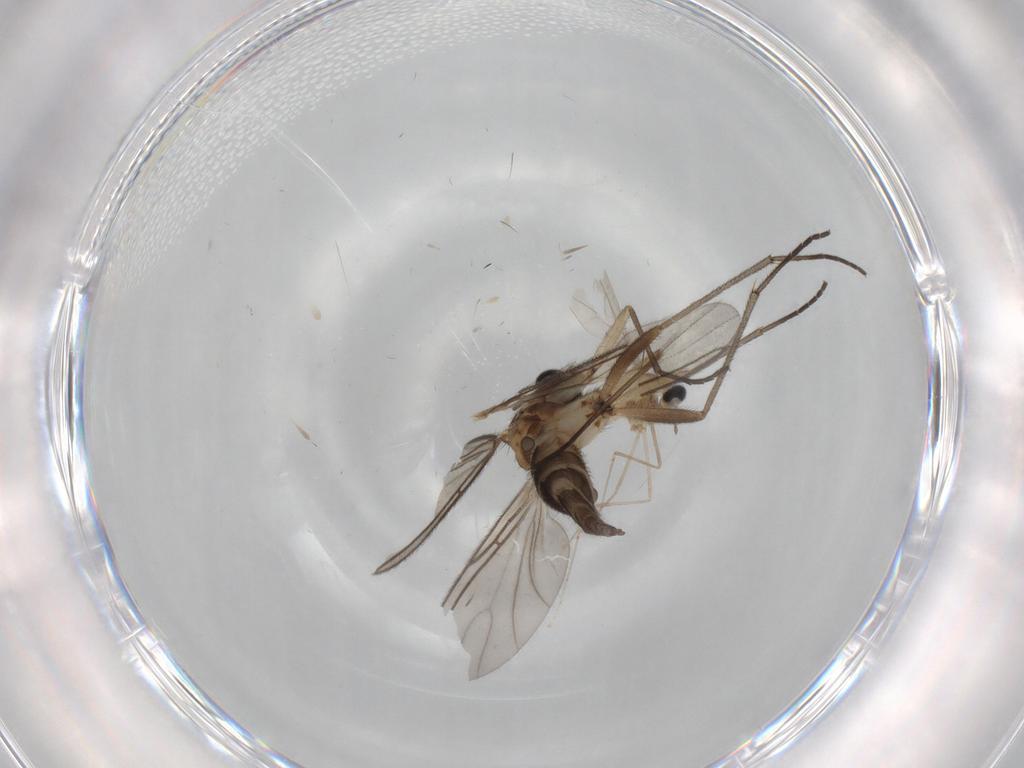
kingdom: Animalia
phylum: Arthropoda
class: Insecta
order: Diptera
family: Cecidomyiidae
